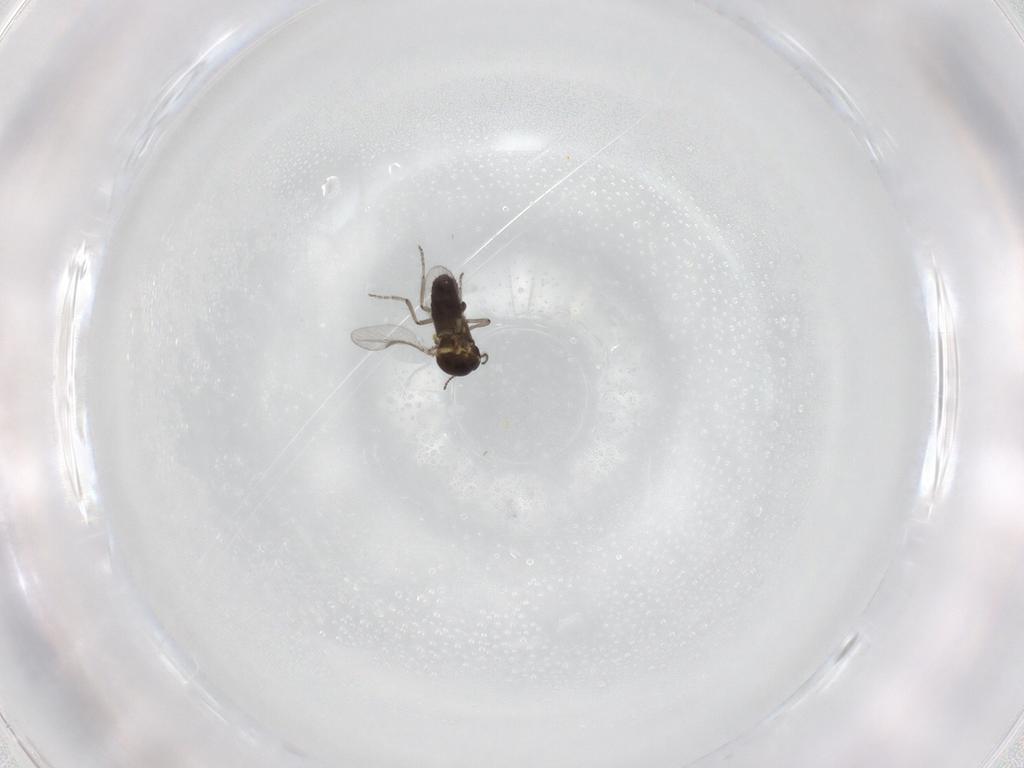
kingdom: Animalia
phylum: Arthropoda
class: Insecta
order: Diptera
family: Ceratopogonidae
